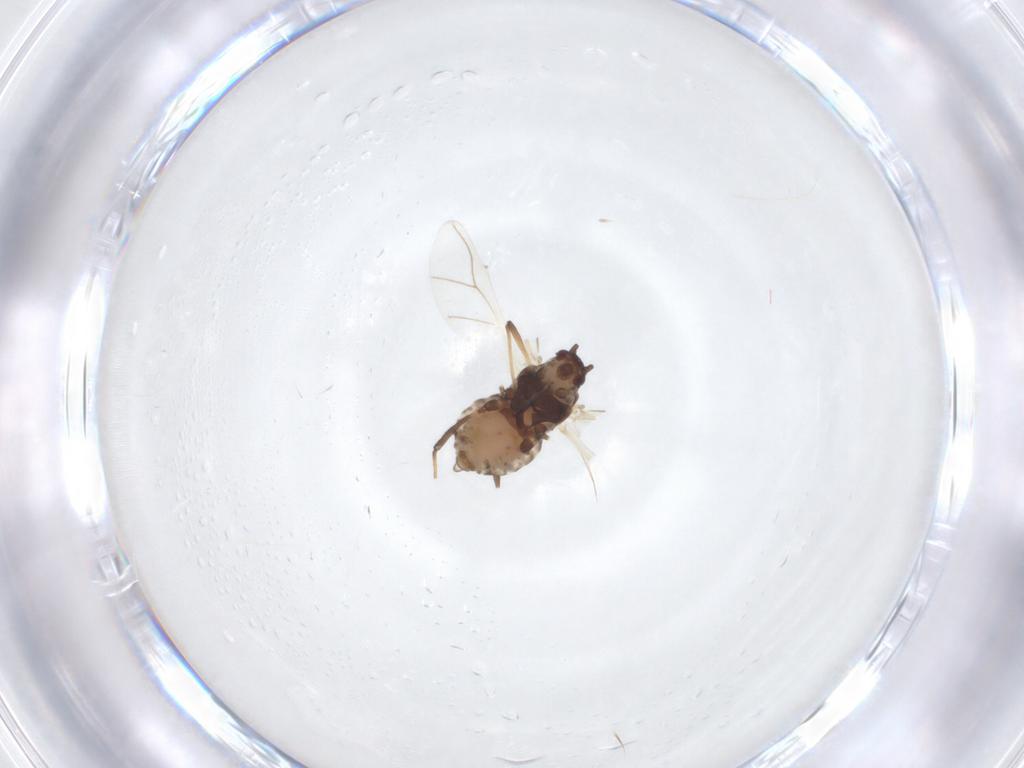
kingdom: Animalia
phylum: Arthropoda
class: Insecta
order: Hemiptera
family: Aphididae
